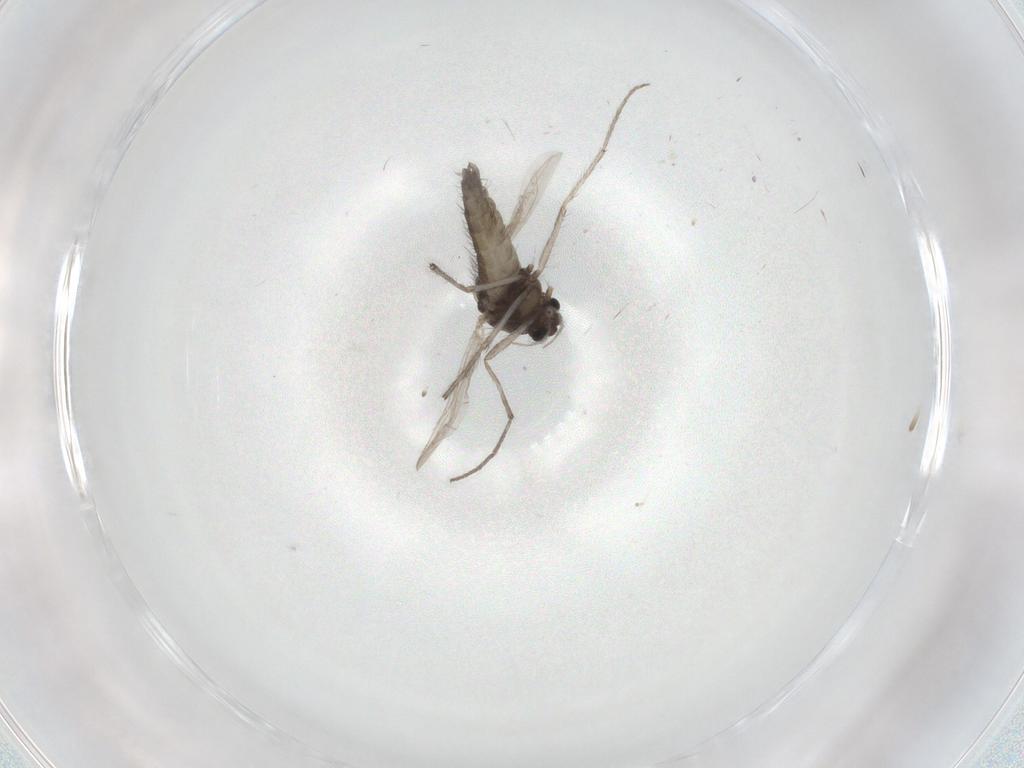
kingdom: Animalia
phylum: Arthropoda
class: Insecta
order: Diptera
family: Chironomidae
